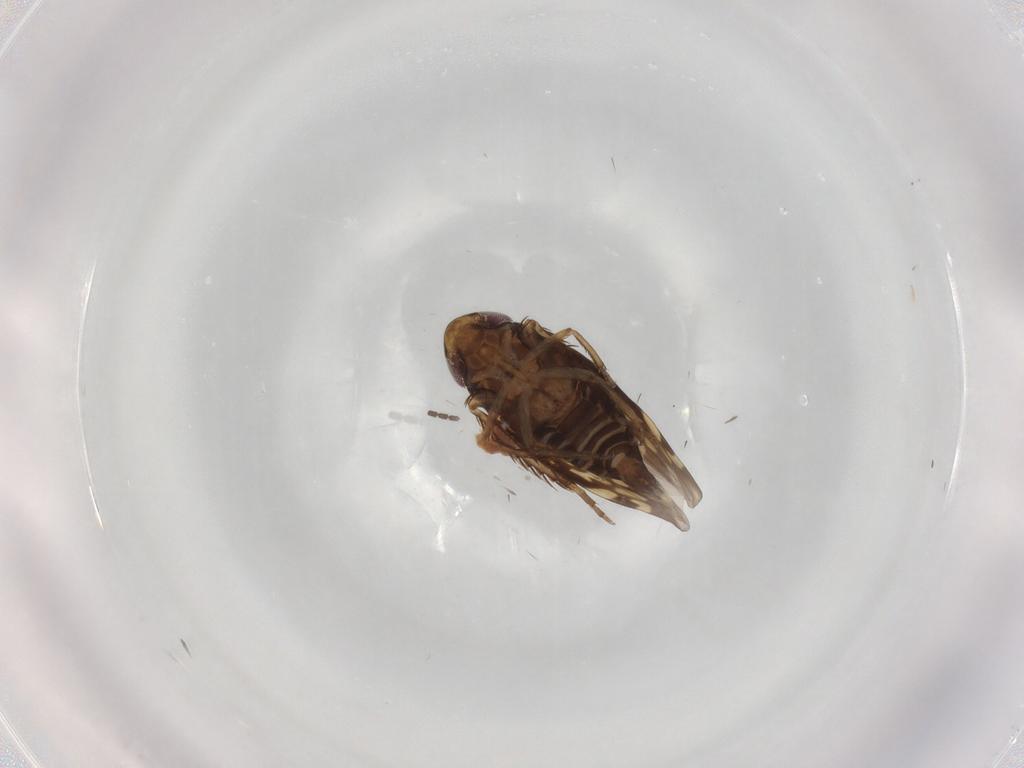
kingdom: Animalia
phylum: Arthropoda
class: Insecta
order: Hemiptera
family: Cicadellidae
